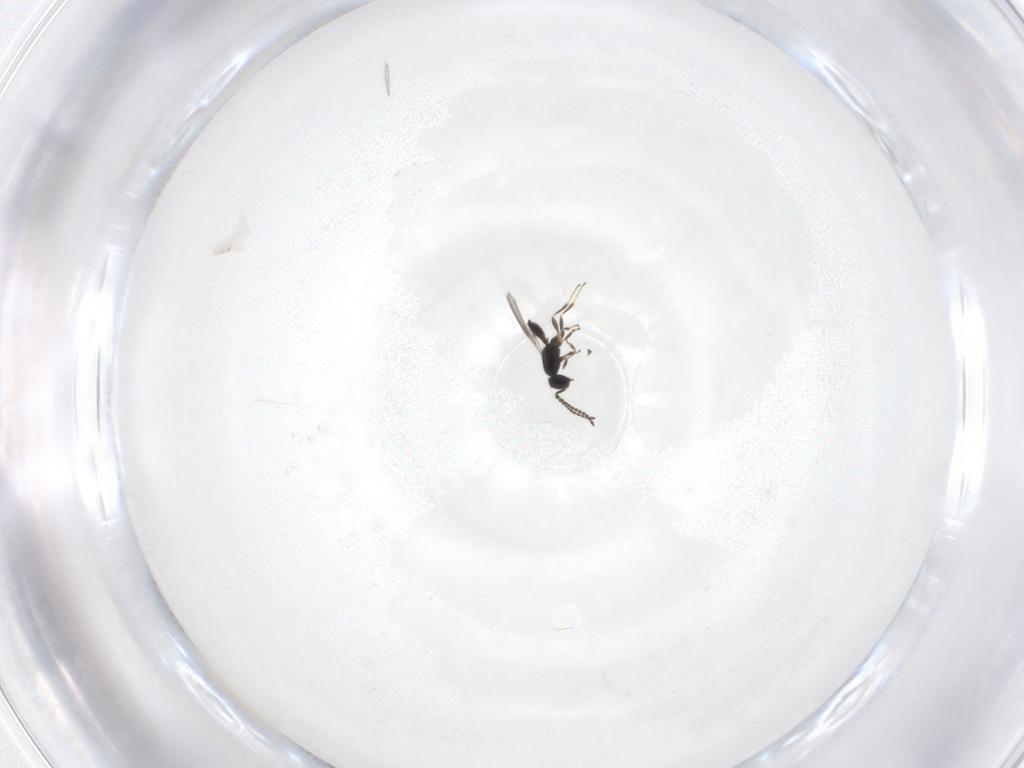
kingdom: Animalia
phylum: Arthropoda
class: Insecta
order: Hymenoptera
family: Scelionidae
